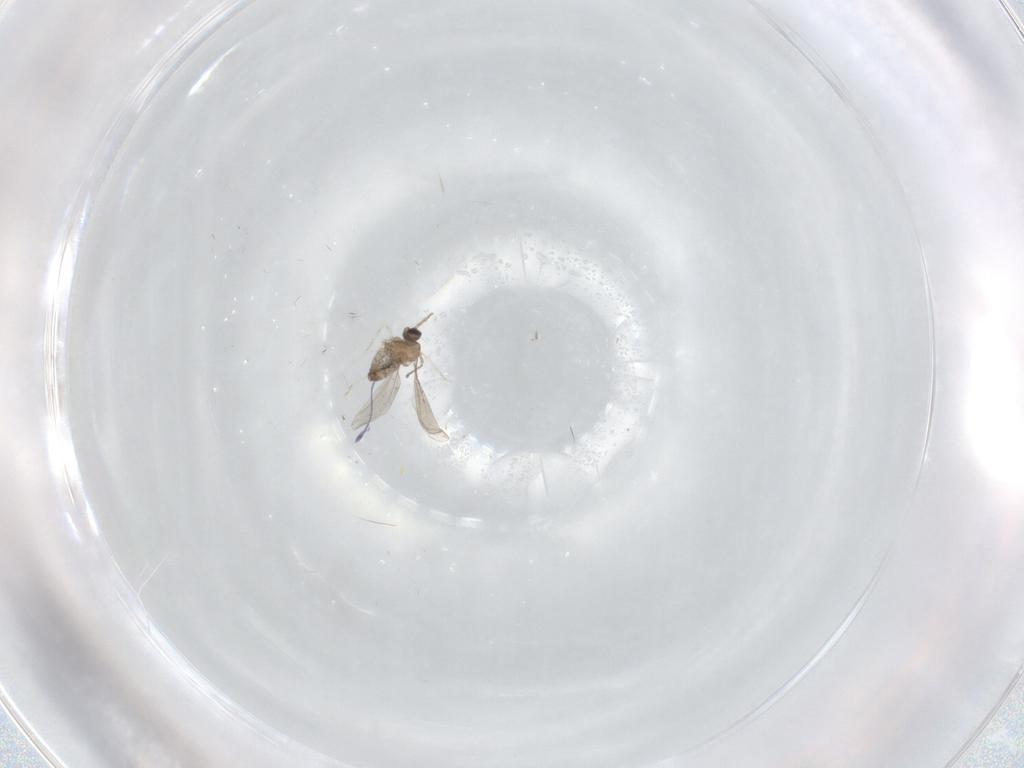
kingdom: Animalia
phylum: Arthropoda
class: Insecta
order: Diptera
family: Cecidomyiidae
